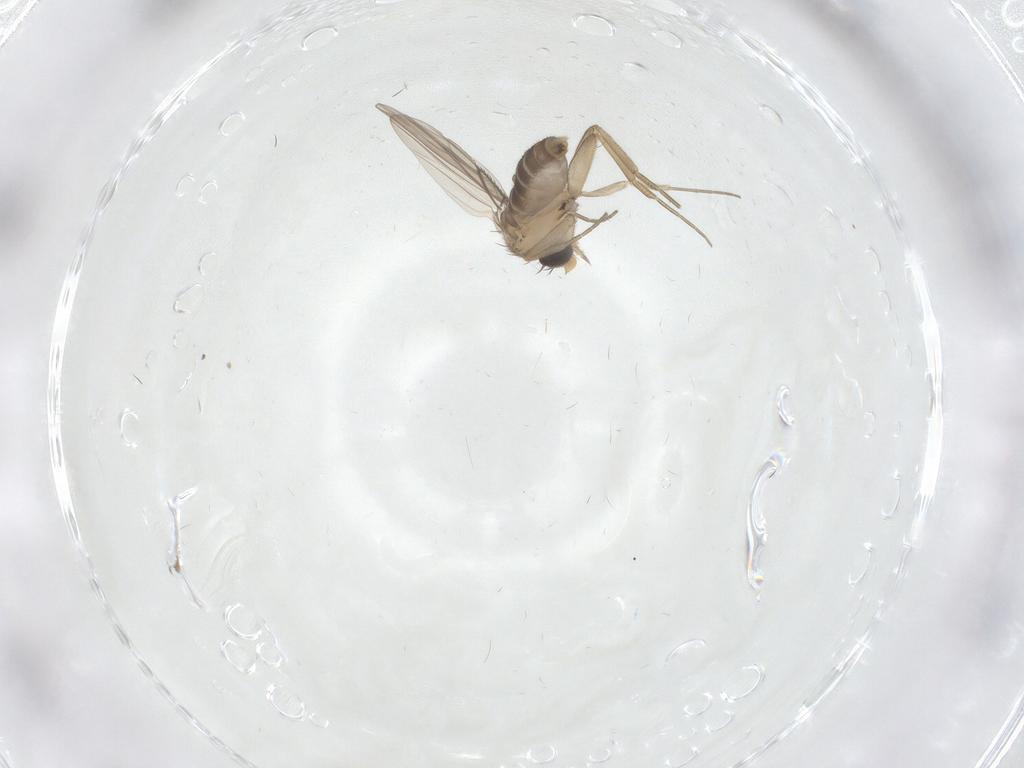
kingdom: Animalia
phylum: Arthropoda
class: Insecta
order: Diptera
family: Phoridae
